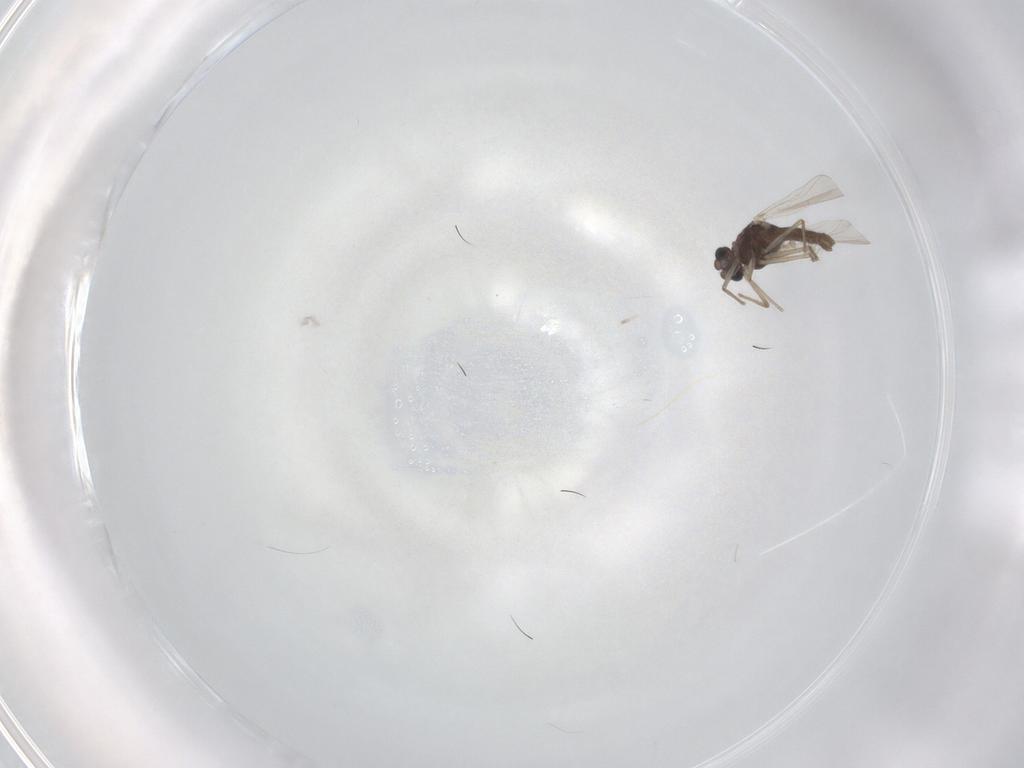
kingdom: Animalia
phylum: Arthropoda
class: Insecta
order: Diptera
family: Chironomidae
